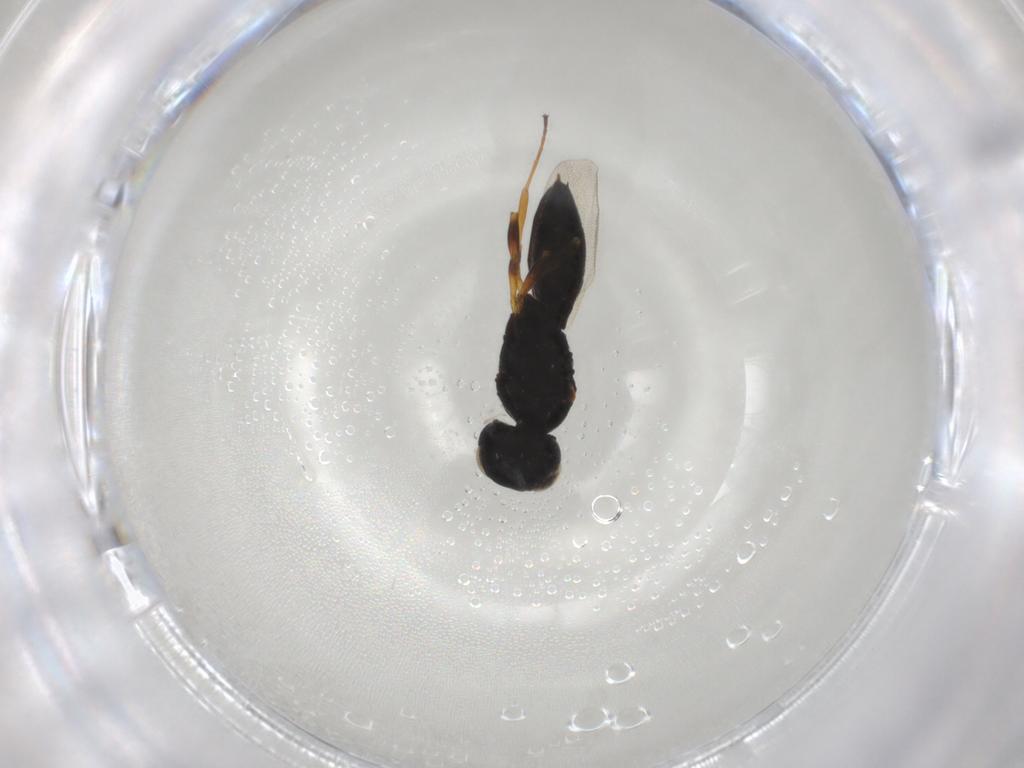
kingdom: Animalia
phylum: Arthropoda
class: Insecta
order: Hymenoptera
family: Scelionidae
